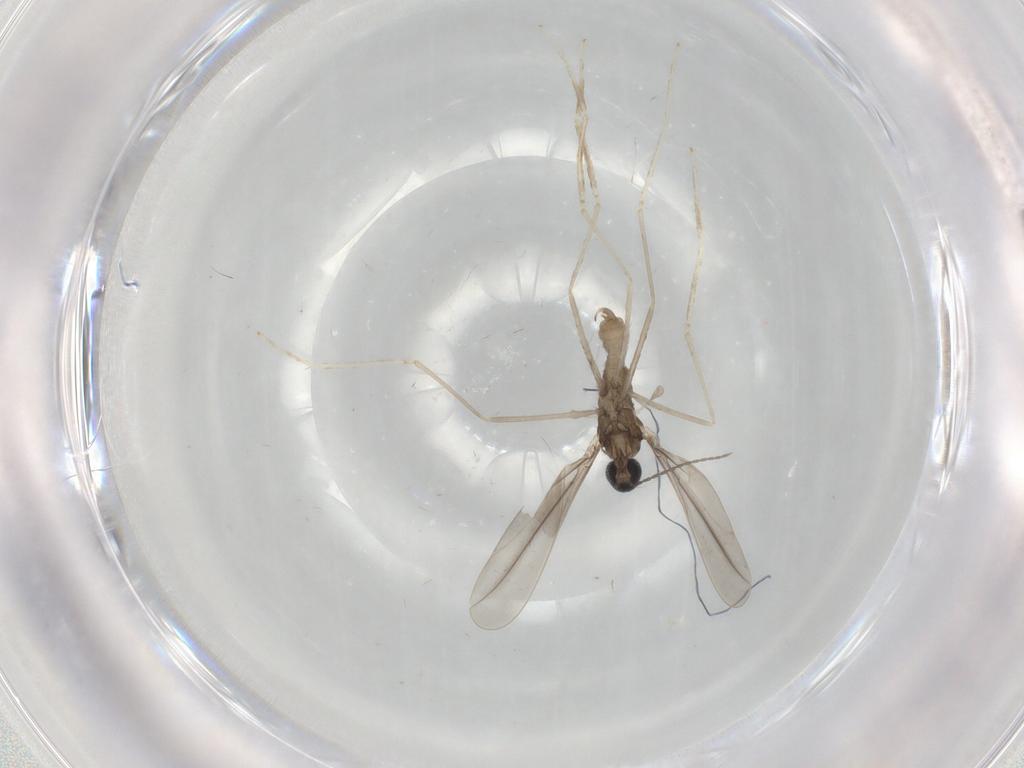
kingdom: Animalia
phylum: Arthropoda
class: Insecta
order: Diptera
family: Cecidomyiidae
